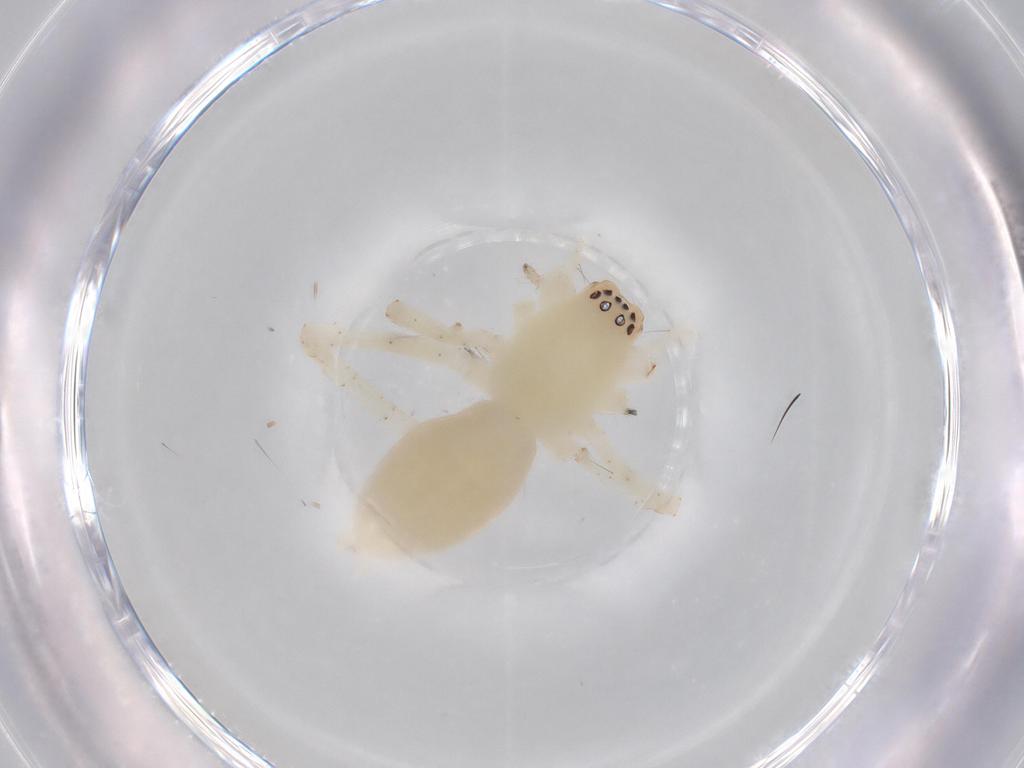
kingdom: Animalia
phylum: Arthropoda
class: Arachnida
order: Araneae
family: Anyphaenidae
